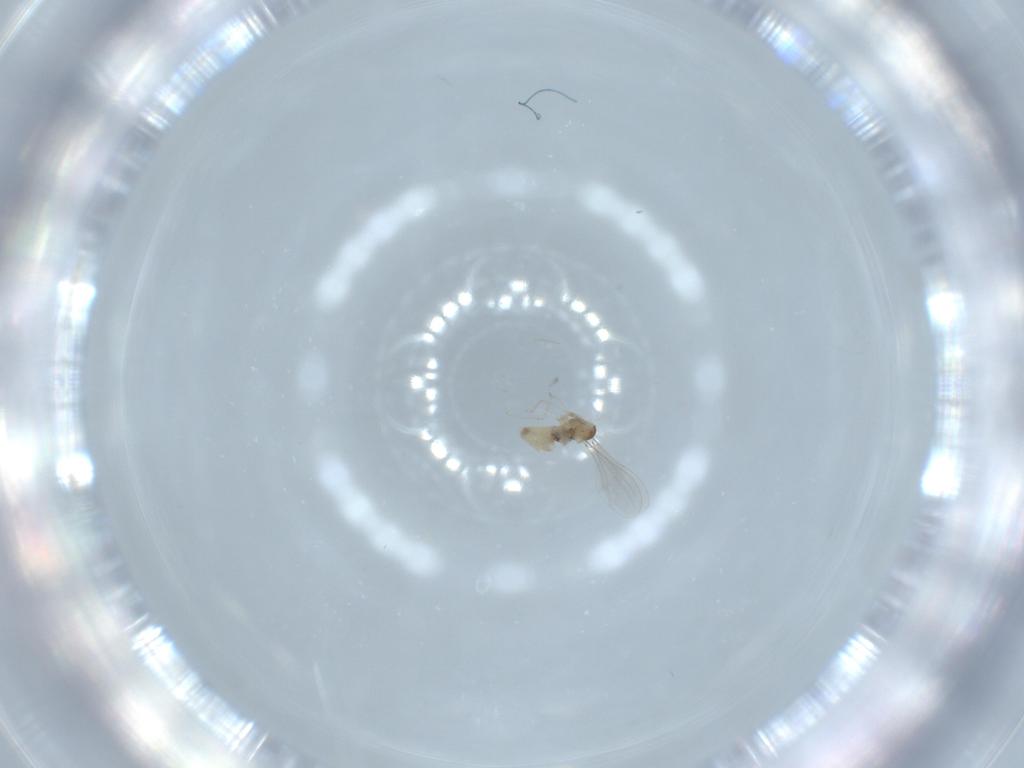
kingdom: Animalia
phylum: Arthropoda
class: Insecta
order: Diptera
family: Cecidomyiidae
